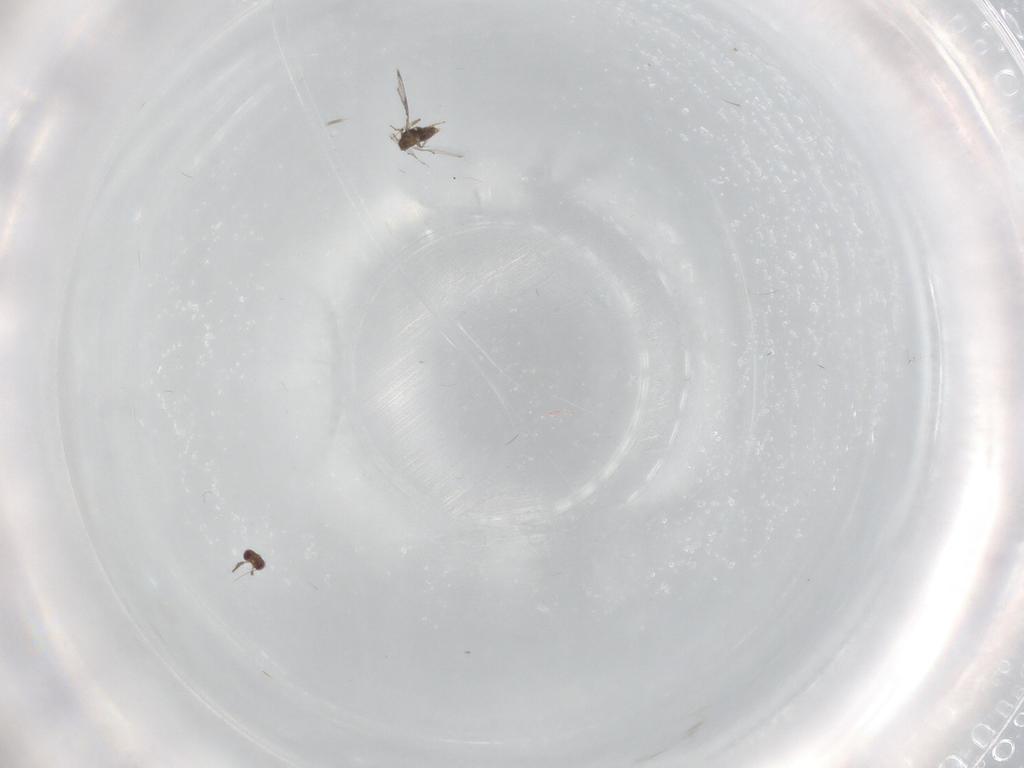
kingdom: Animalia
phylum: Arthropoda
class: Insecta
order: Hymenoptera
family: Trichogrammatidae
